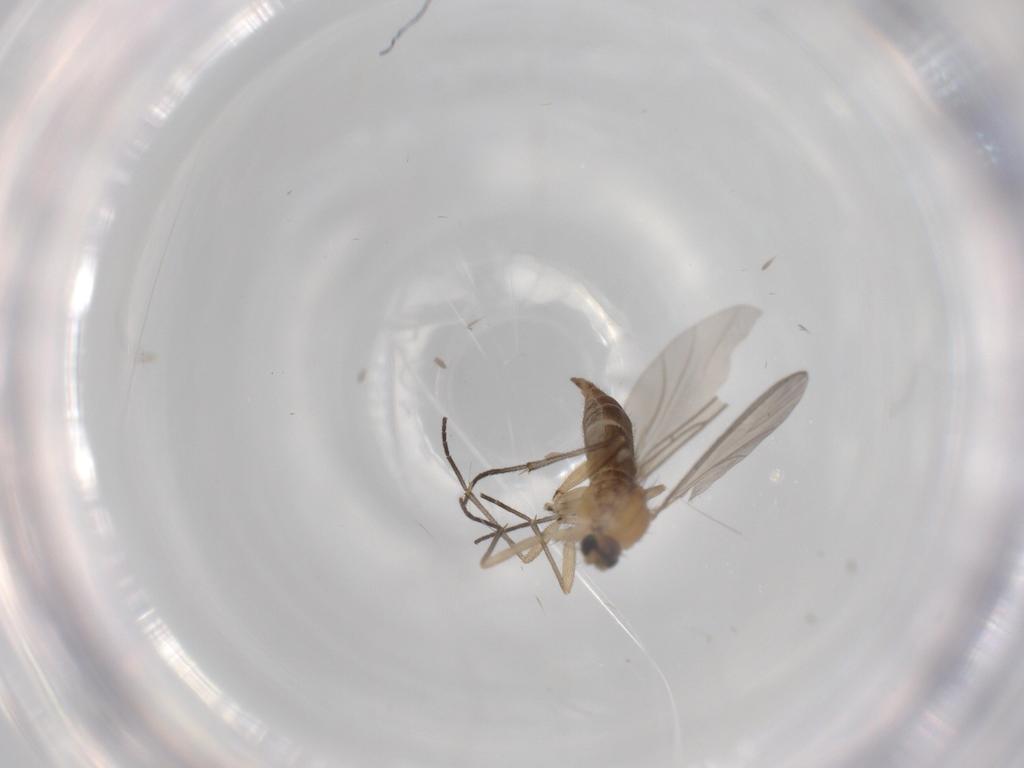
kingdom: Animalia
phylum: Arthropoda
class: Insecta
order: Diptera
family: Sciaridae
